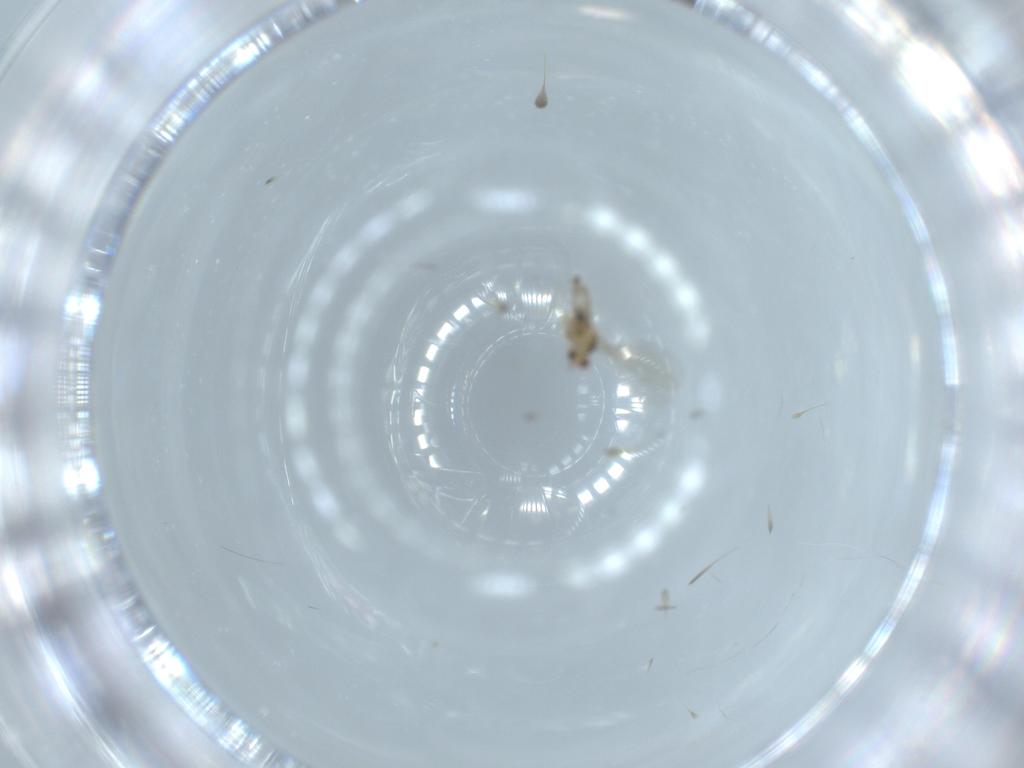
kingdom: Animalia
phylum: Arthropoda
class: Insecta
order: Diptera
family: Cecidomyiidae
